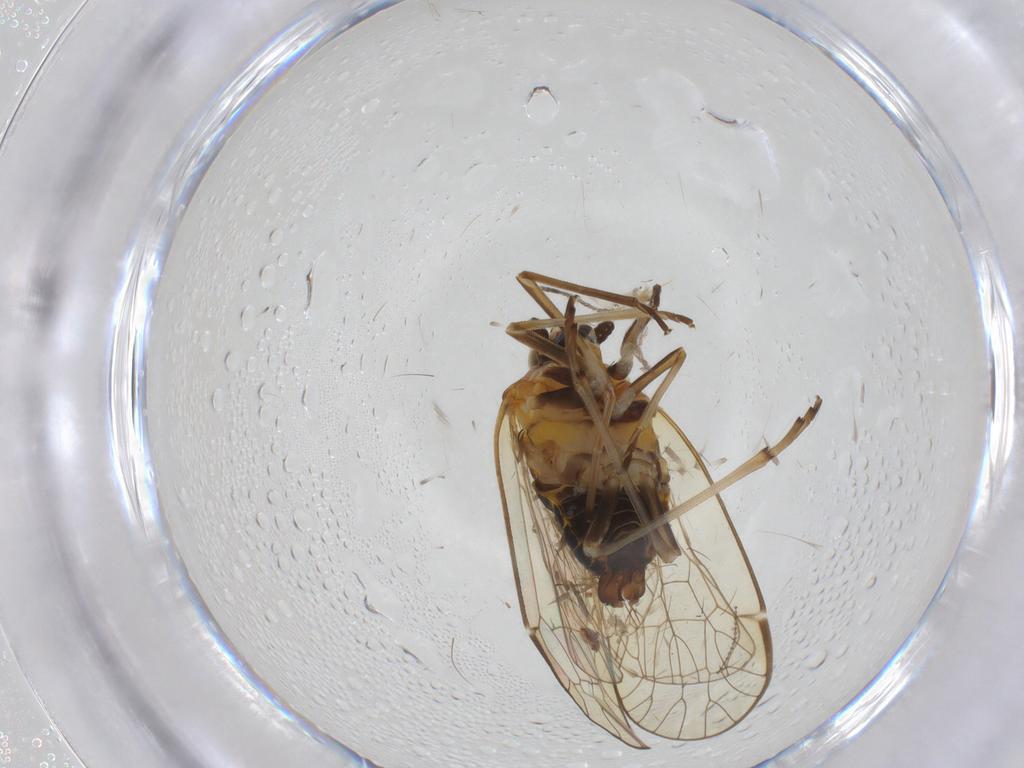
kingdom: Animalia
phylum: Arthropoda
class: Insecta
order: Hemiptera
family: Kinnaridae
